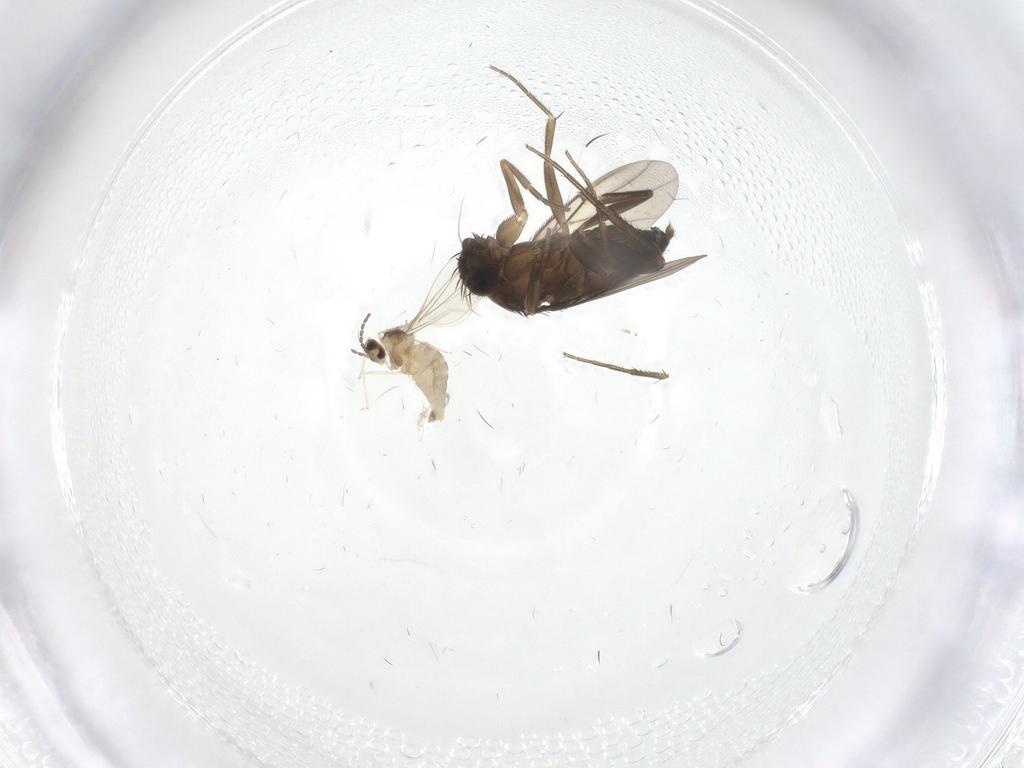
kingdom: Animalia
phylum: Arthropoda
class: Insecta
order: Diptera
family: Cecidomyiidae
